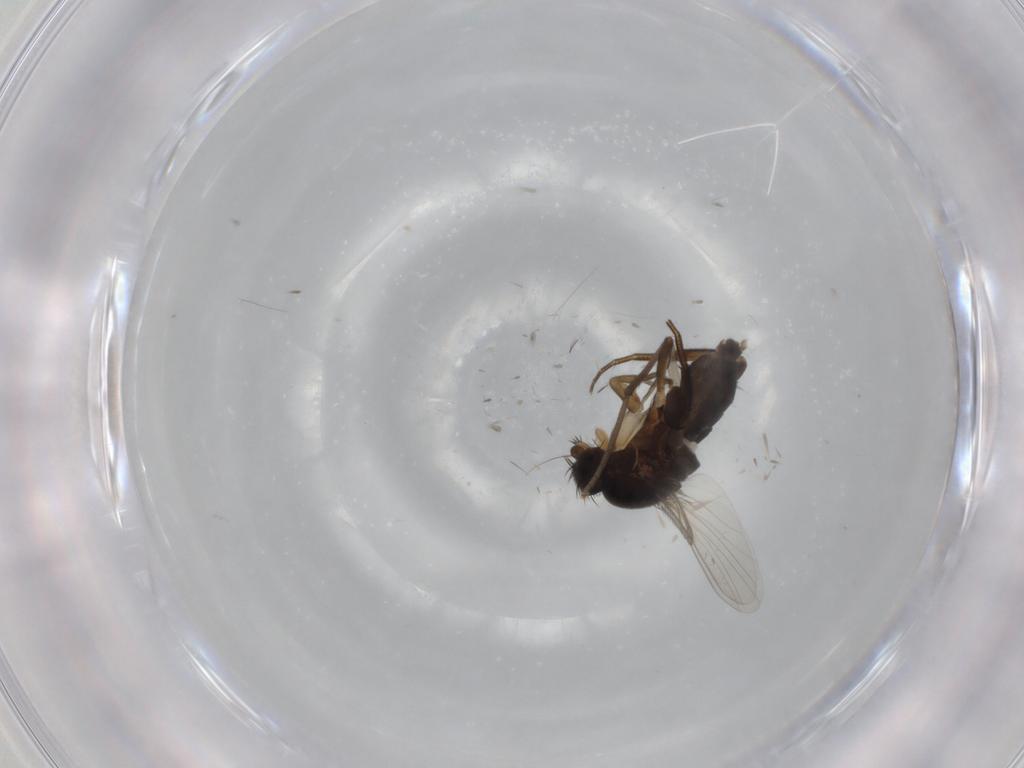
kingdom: Animalia
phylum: Arthropoda
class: Insecta
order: Diptera
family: Phoridae
